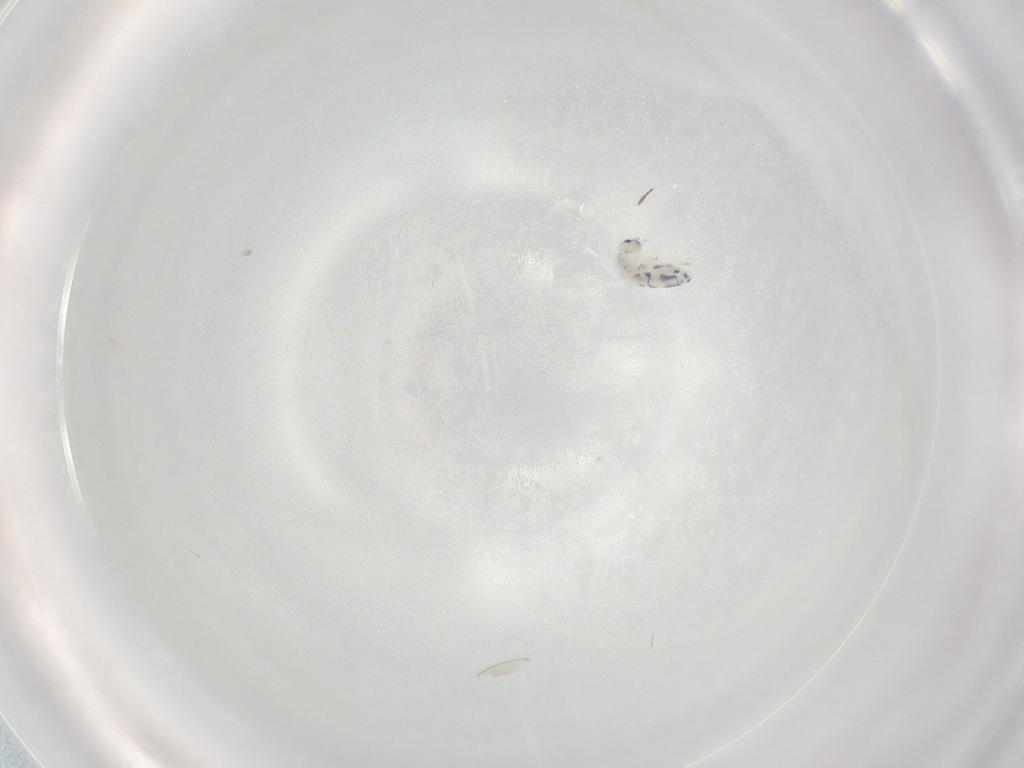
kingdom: Animalia
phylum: Arthropoda
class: Collembola
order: Entomobryomorpha
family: Entomobryidae
